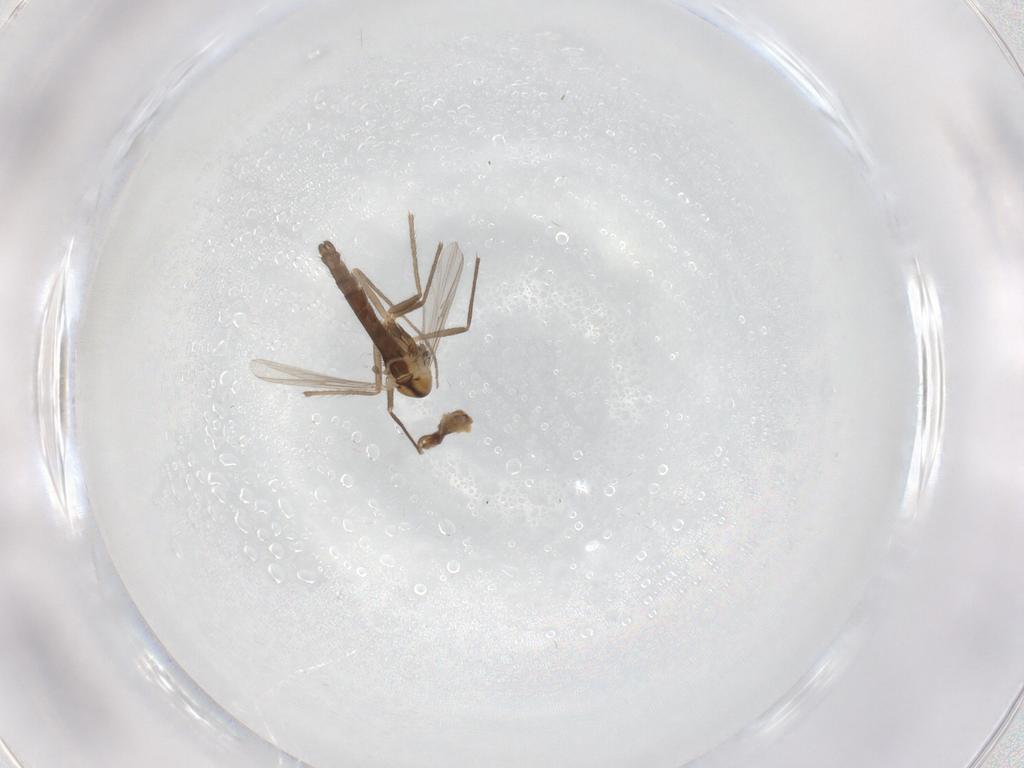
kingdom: Animalia
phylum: Arthropoda
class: Insecta
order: Diptera
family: Chironomidae
